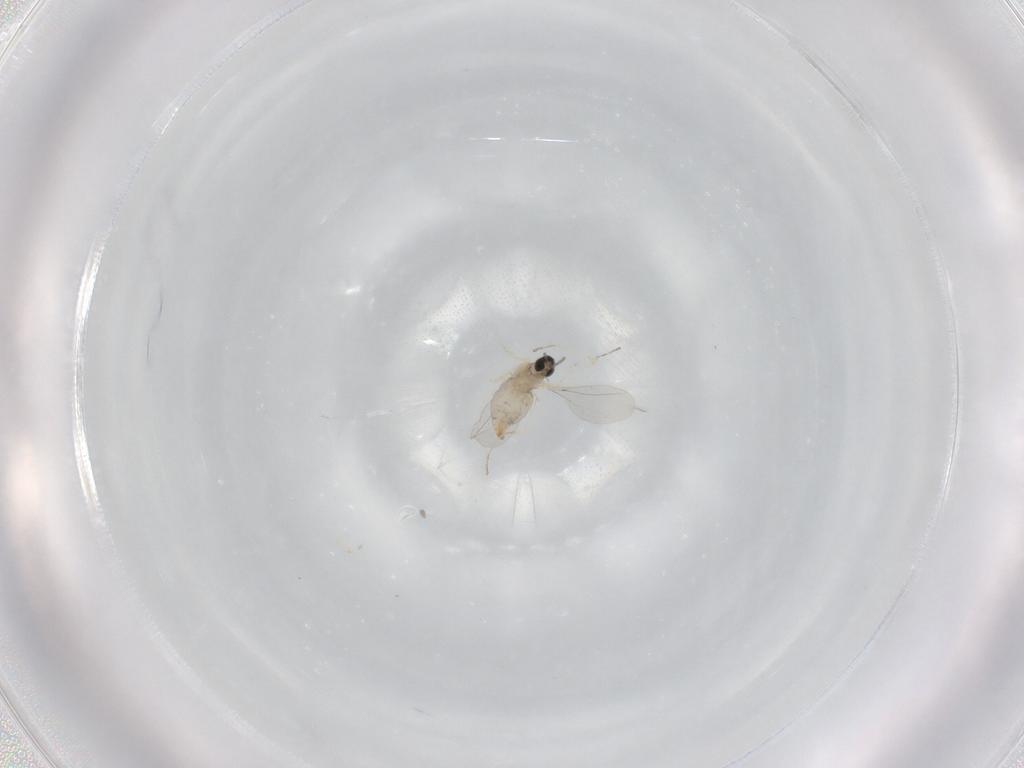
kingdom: Animalia
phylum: Arthropoda
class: Insecta
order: Diptera
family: Cecidomyiidae
